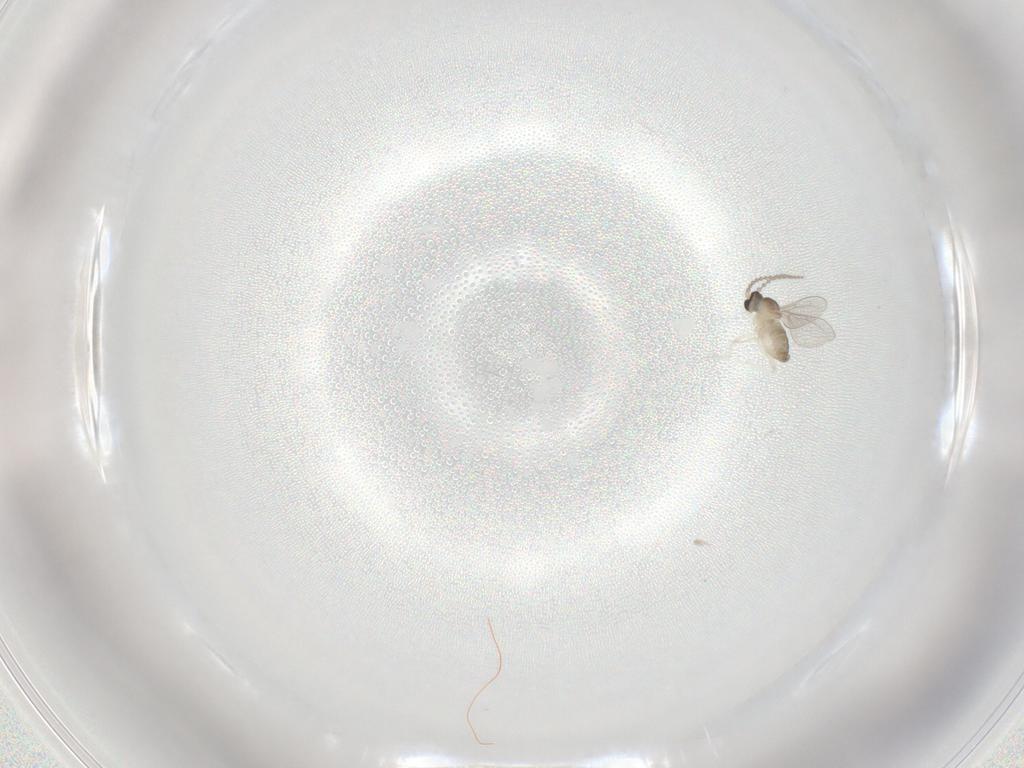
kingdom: Animalia
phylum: Arthropoda
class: Insecta
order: Diptera
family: Cecidomyiidae
